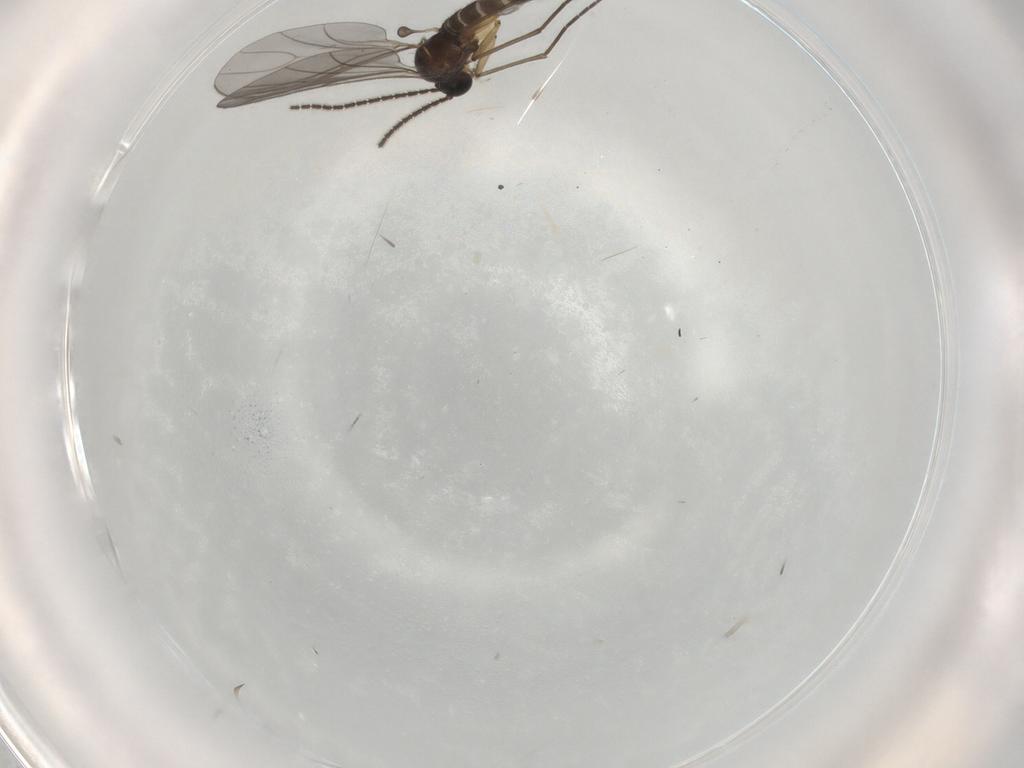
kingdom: Animalia
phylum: Arthropoda
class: Insecta
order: Diptera
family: Sciaridae
